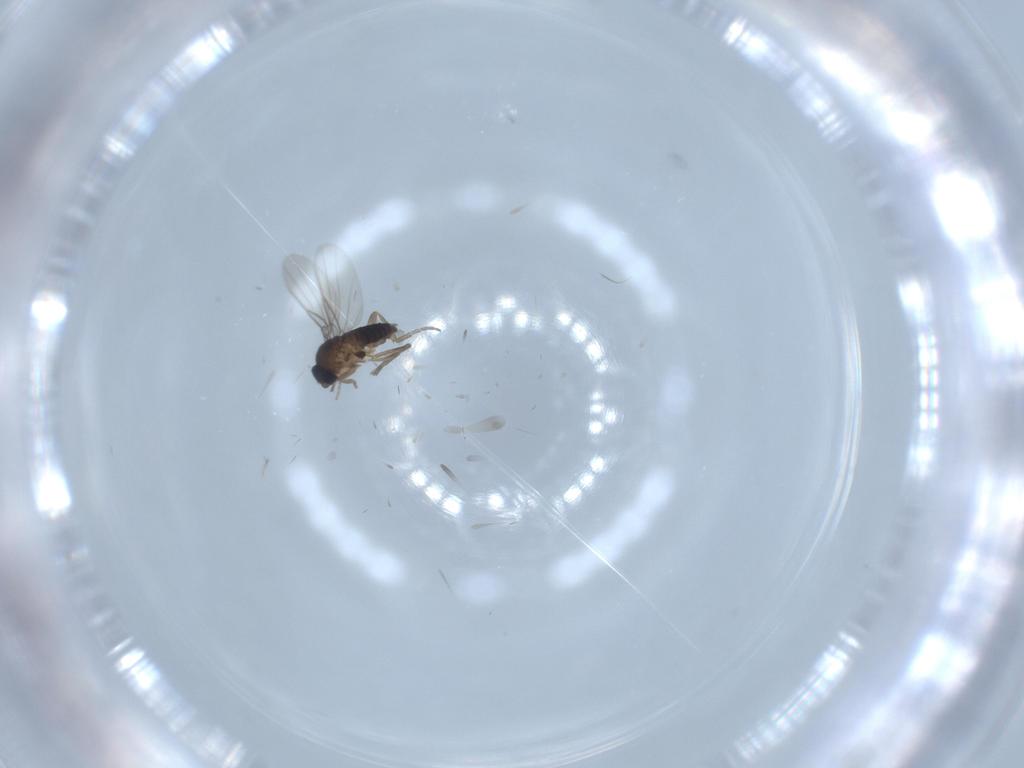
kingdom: Animalia
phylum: Arthropoda
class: Insecta
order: Diptera
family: Phoridae
